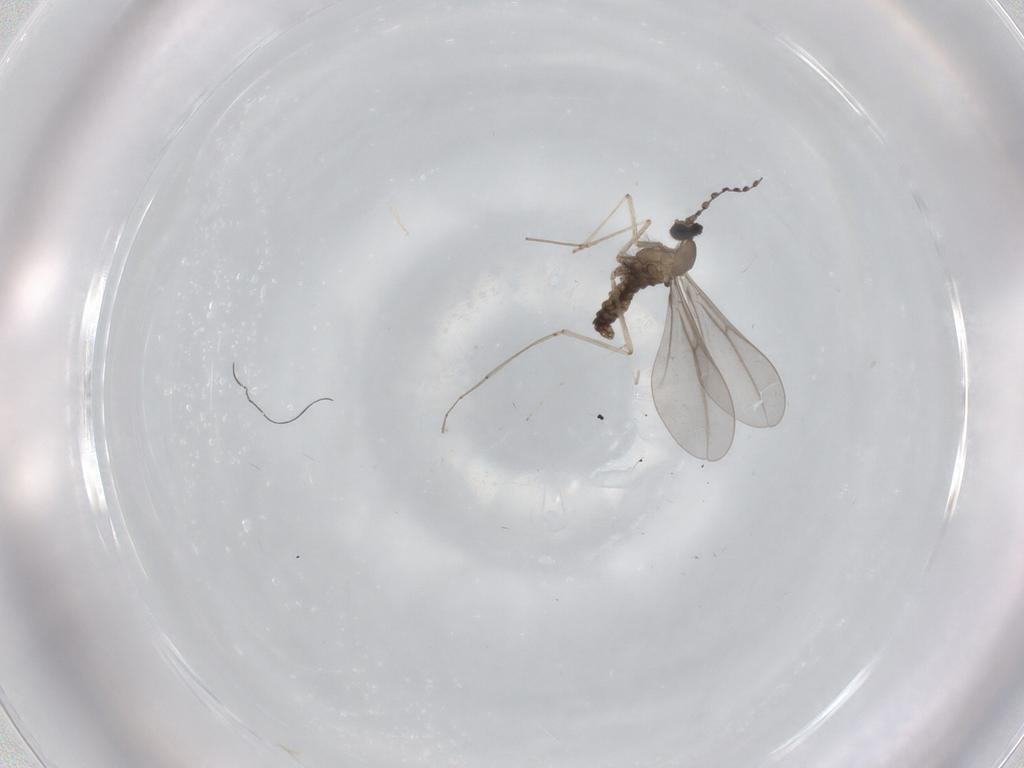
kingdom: Animalia
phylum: Arthropoda
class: Insecta
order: Diptera
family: Cecidomyiidae
